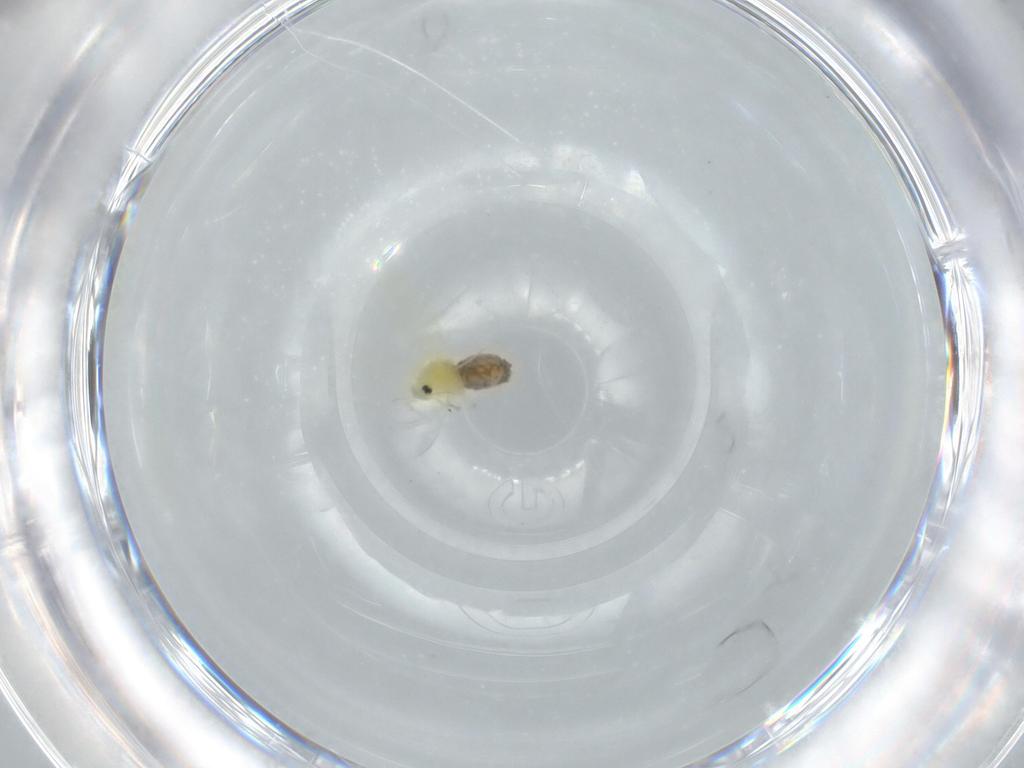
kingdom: Animalia
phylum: Arthropoda
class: Insecta
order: Hemiptera
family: Aleyrodidae
